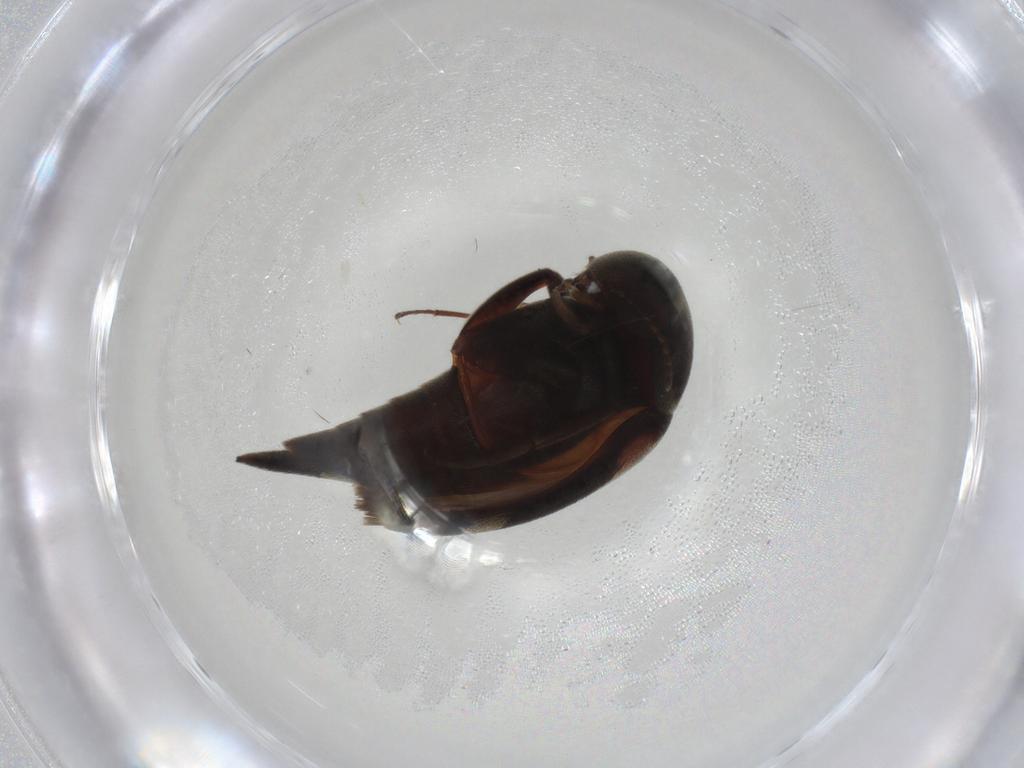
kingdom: Animalia
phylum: Arthropoda
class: Insecta
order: Coleoptera
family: Mordellidae
